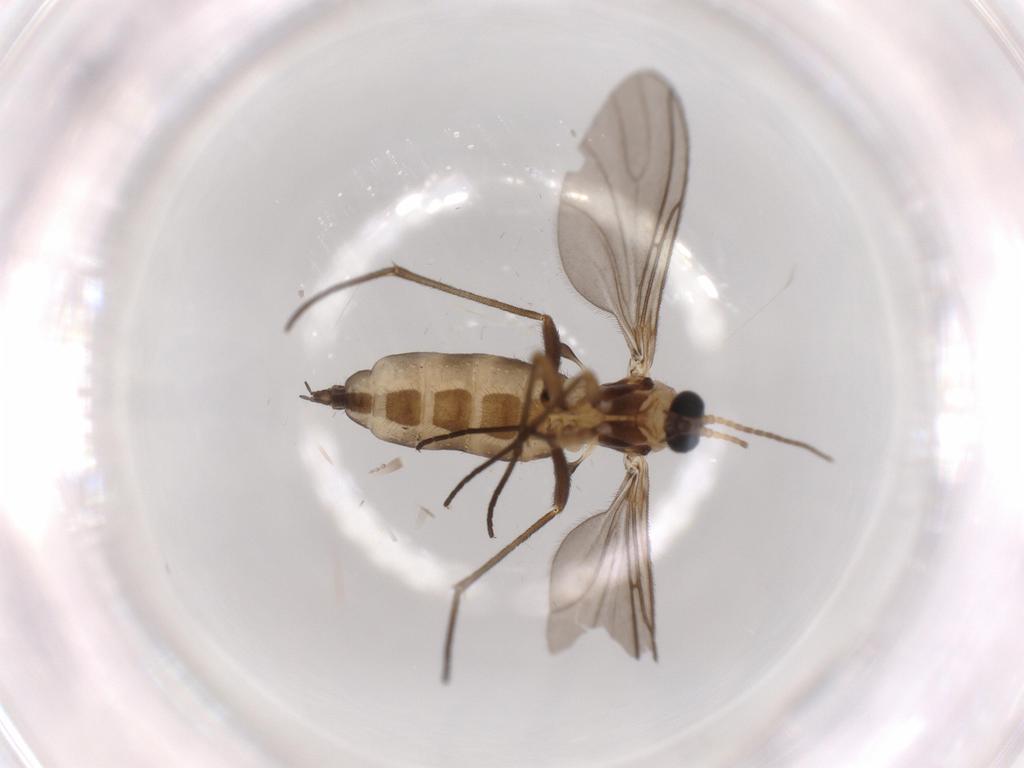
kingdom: Animalia
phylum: Arthropoda
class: Insecta
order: Diptera
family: Sciaridae
